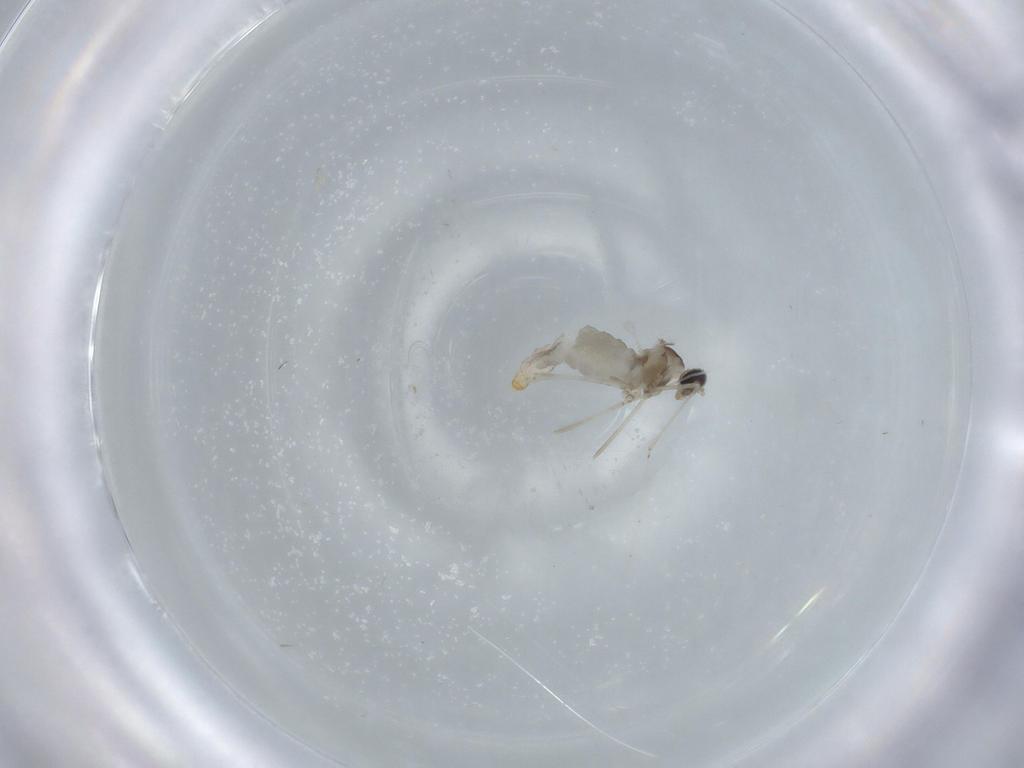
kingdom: Animalia
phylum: Arthropoda
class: Insecta
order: Diptera
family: Cecidomyiidae
